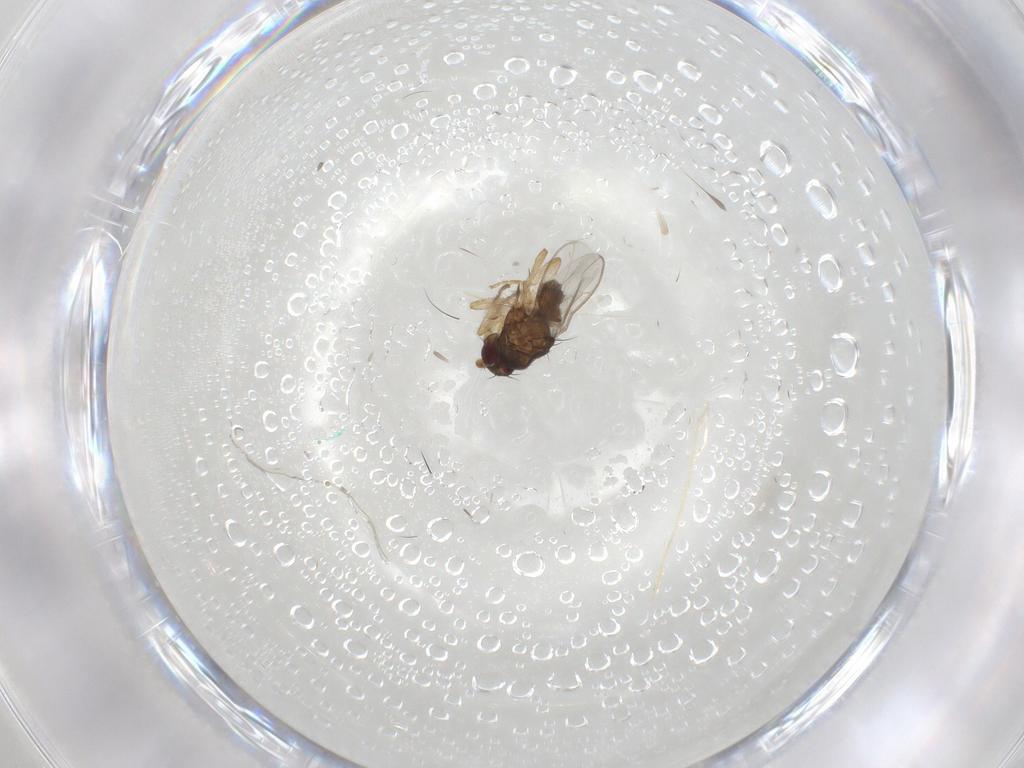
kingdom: Animalia
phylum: Arthropoda
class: Insecta
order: Diptera
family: Sphaeroceridae
